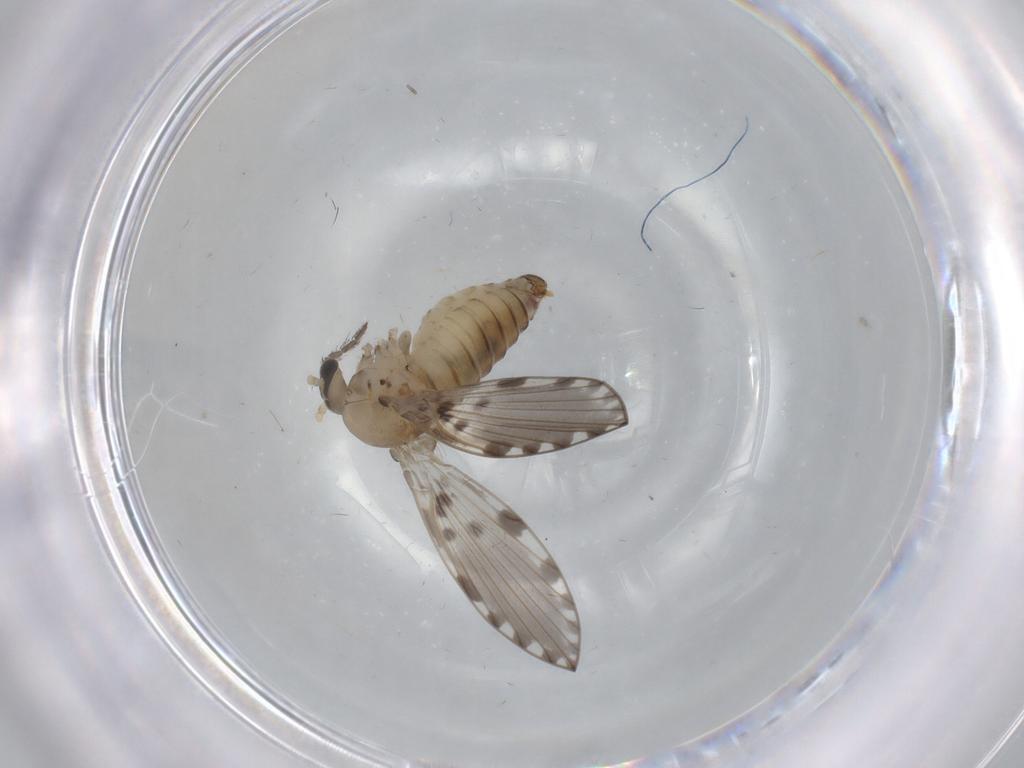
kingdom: Animalia
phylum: Arthropoda
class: Insecta
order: Diptera
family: Psychodidae
